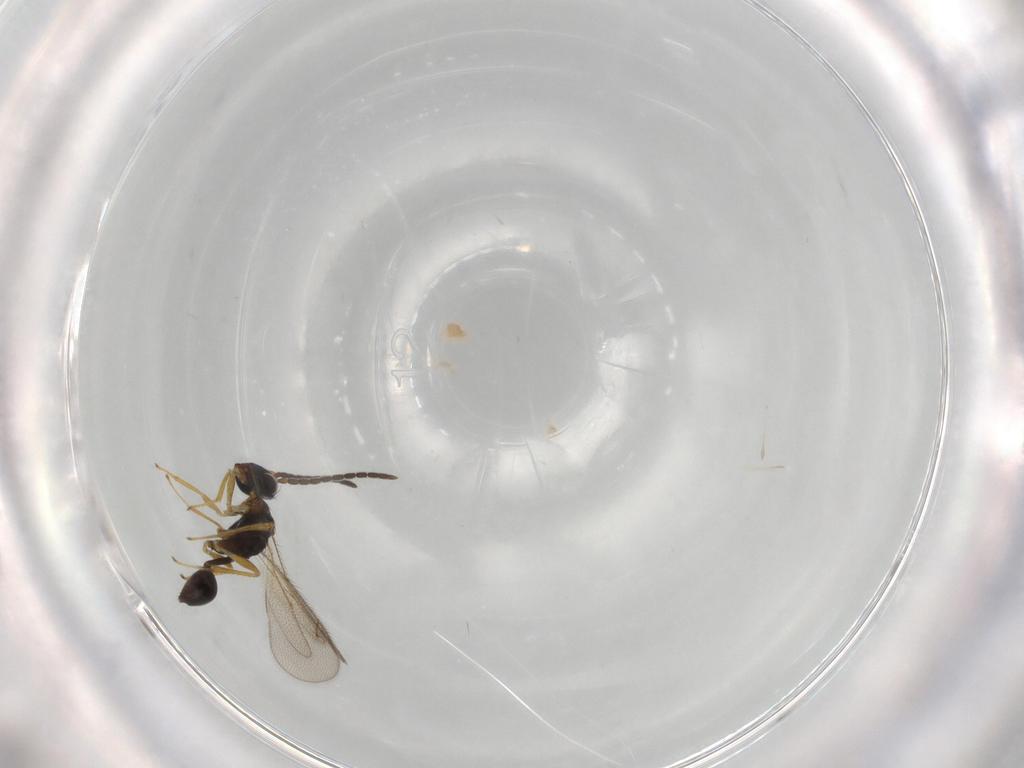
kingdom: Animalia
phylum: Arthropoda
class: Insecta
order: Hymenoptera
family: Diparidae
